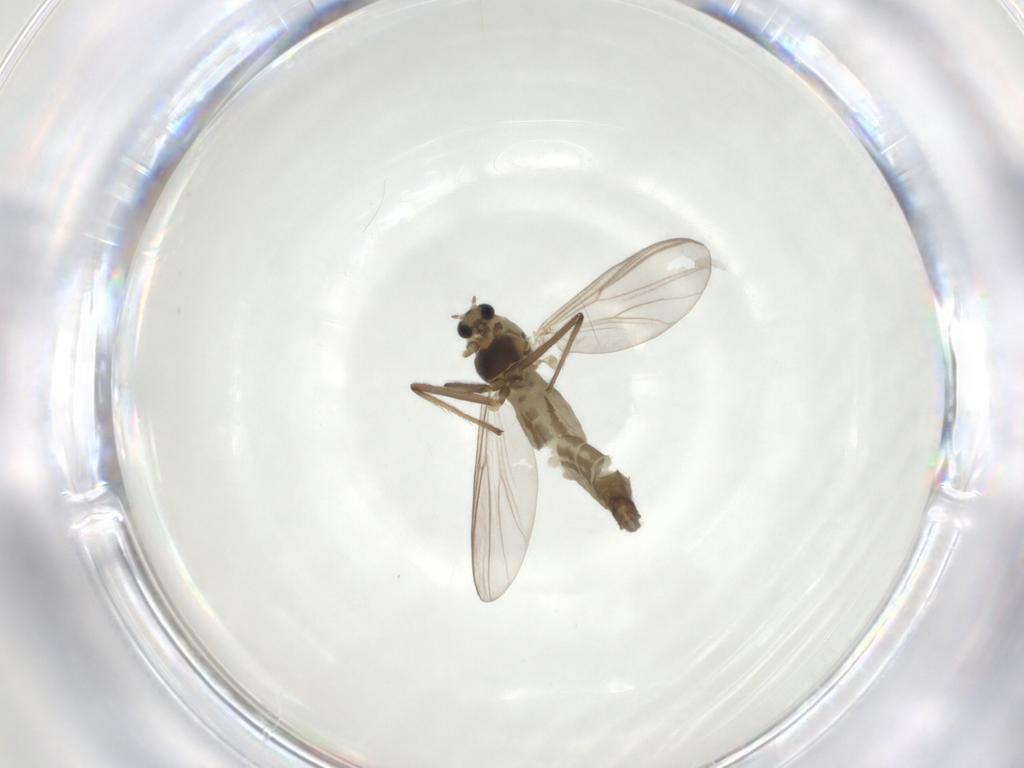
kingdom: Animalia
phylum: Arthropoda
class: Insecta
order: Diptera
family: Chironomidae
